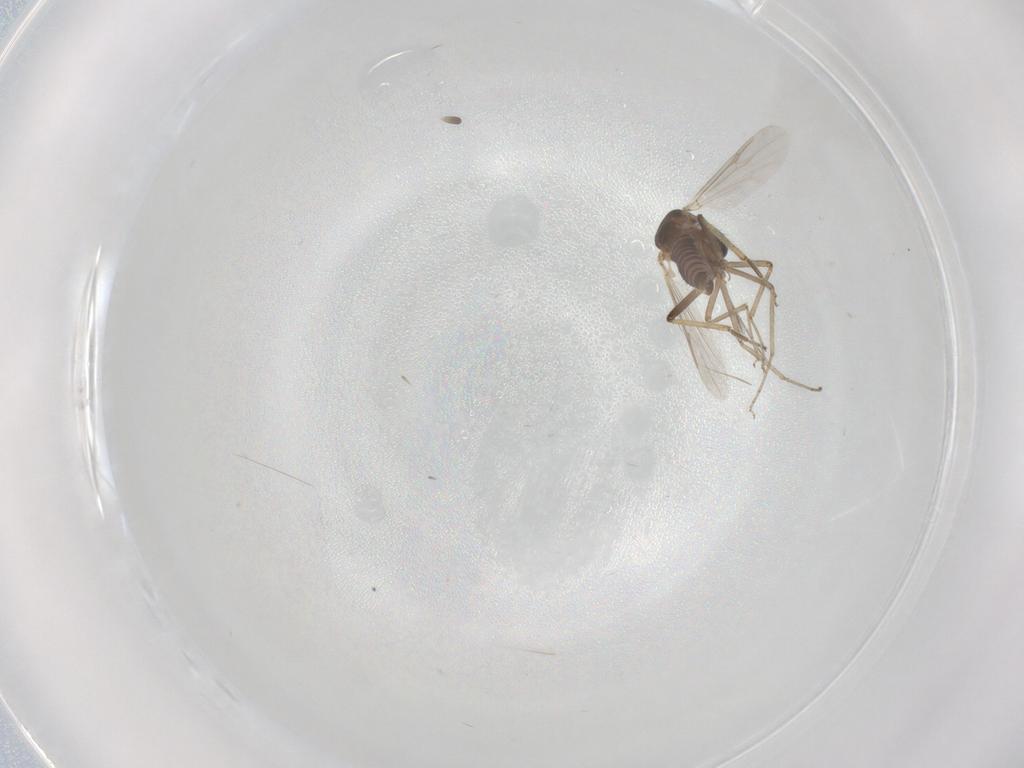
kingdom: Animalia
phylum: Arthropoda
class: Insecta
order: Diptera
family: Ceratopogonidae
